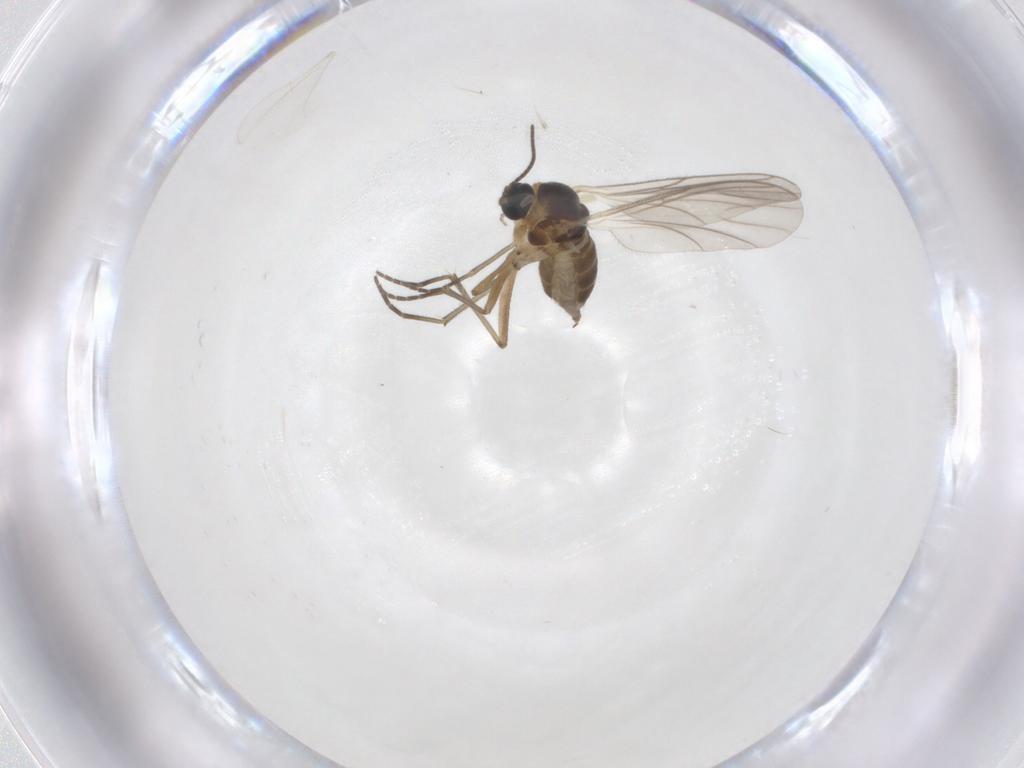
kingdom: Animalia
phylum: Arthropoda
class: Insecta
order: Diptera
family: Cecidomyiidae
